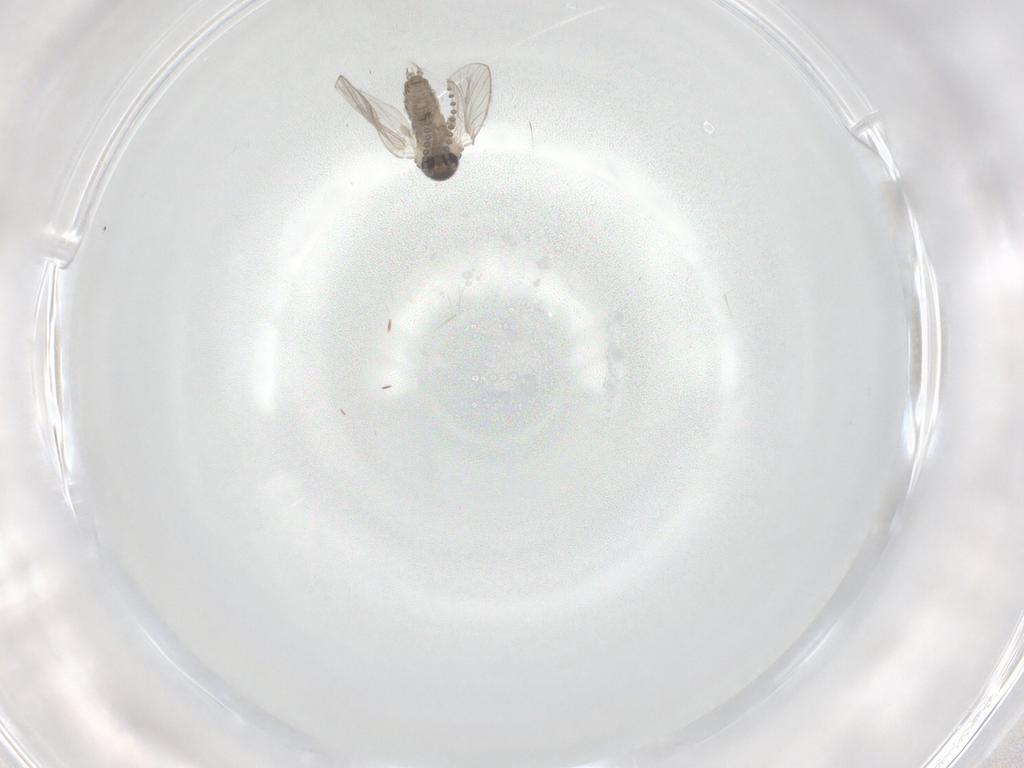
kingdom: Animalia
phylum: Arthropoda
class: Insecta
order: Diptera
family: Psychodidae
